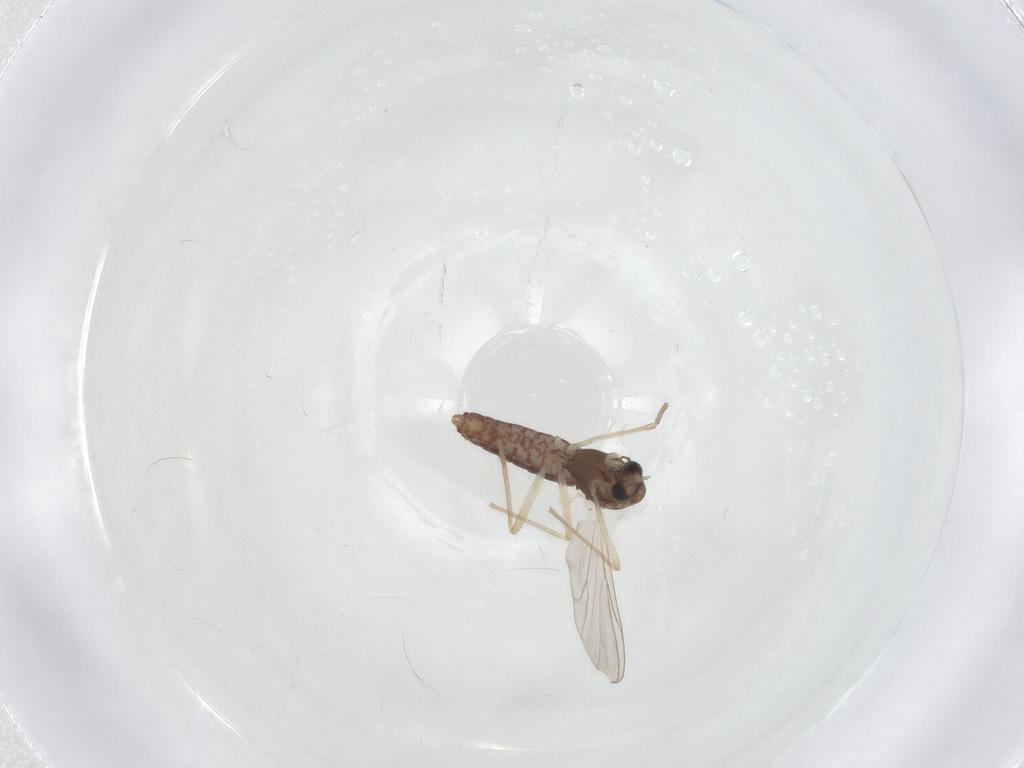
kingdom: Animalia
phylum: Arthropoda
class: Insecta
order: Diptera
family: Chironomidae
